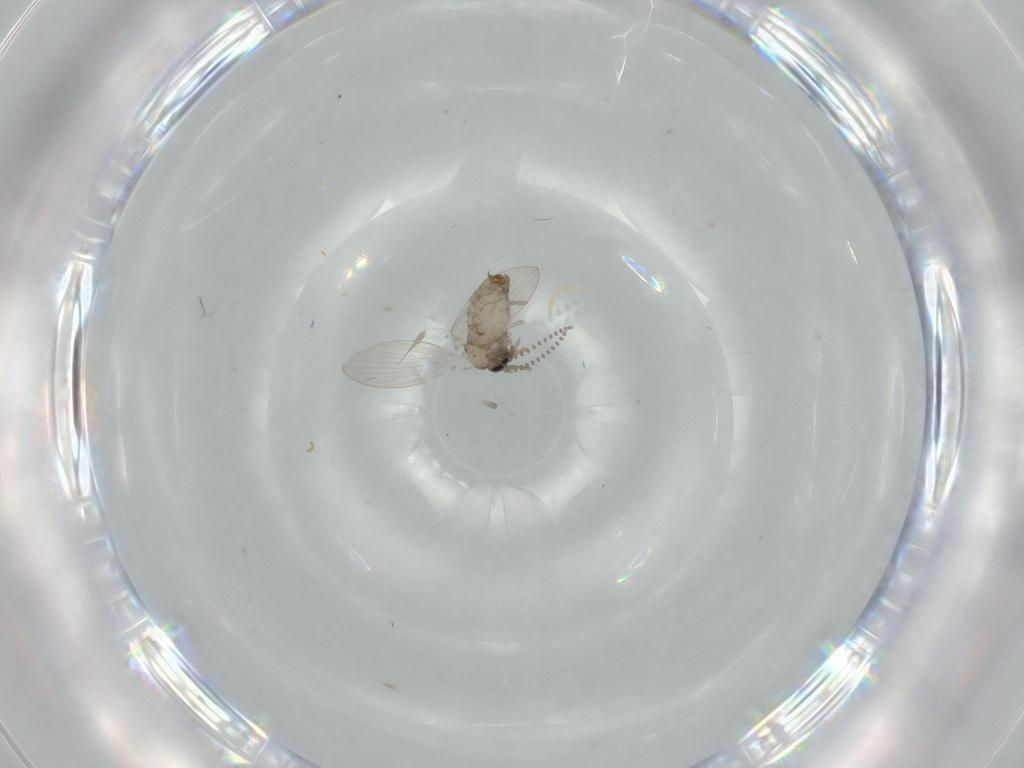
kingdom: Animalia
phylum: Arthropoda
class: Insecta
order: Diptera
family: Psychodidae
